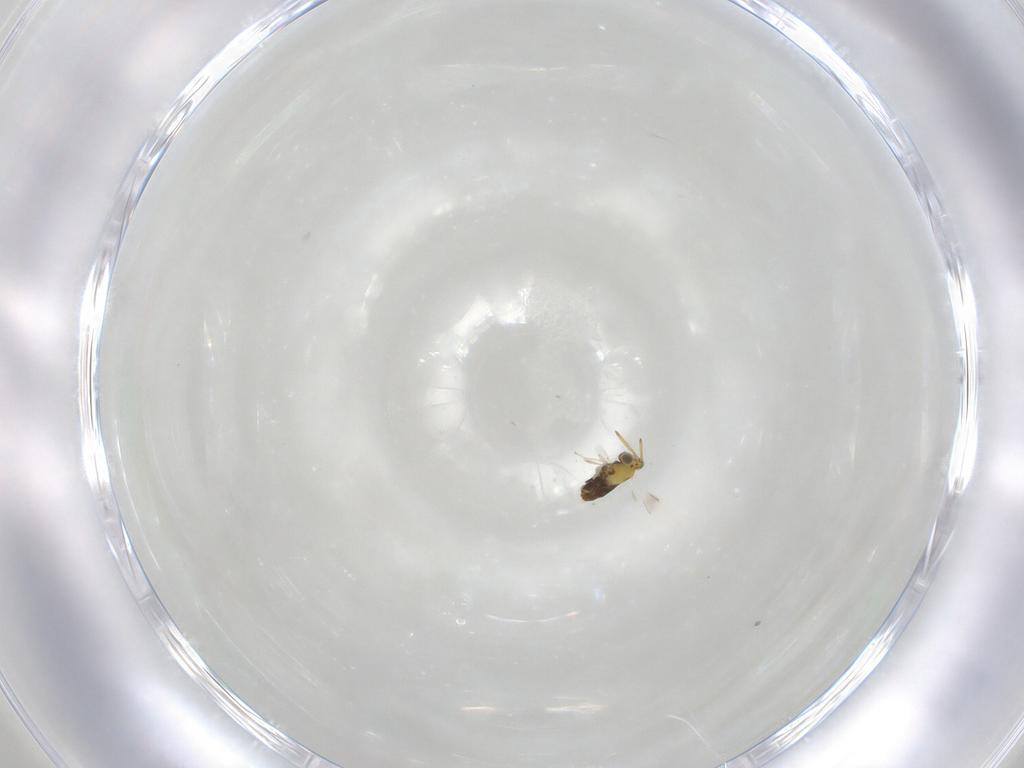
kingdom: Animalia
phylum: Arthropoda
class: Insecta
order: Hymenoptera
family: Aphelinidae
